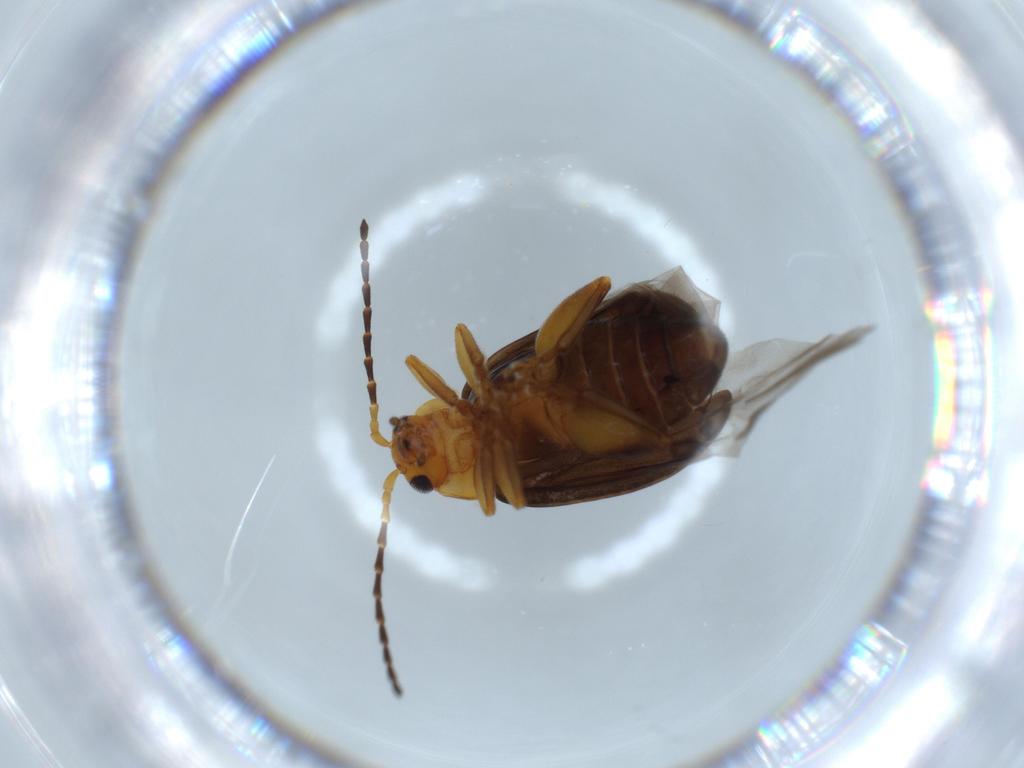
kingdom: Animalia
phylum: Arthropoda
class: Insecta
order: Coleoptera
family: Chrysomelidae
